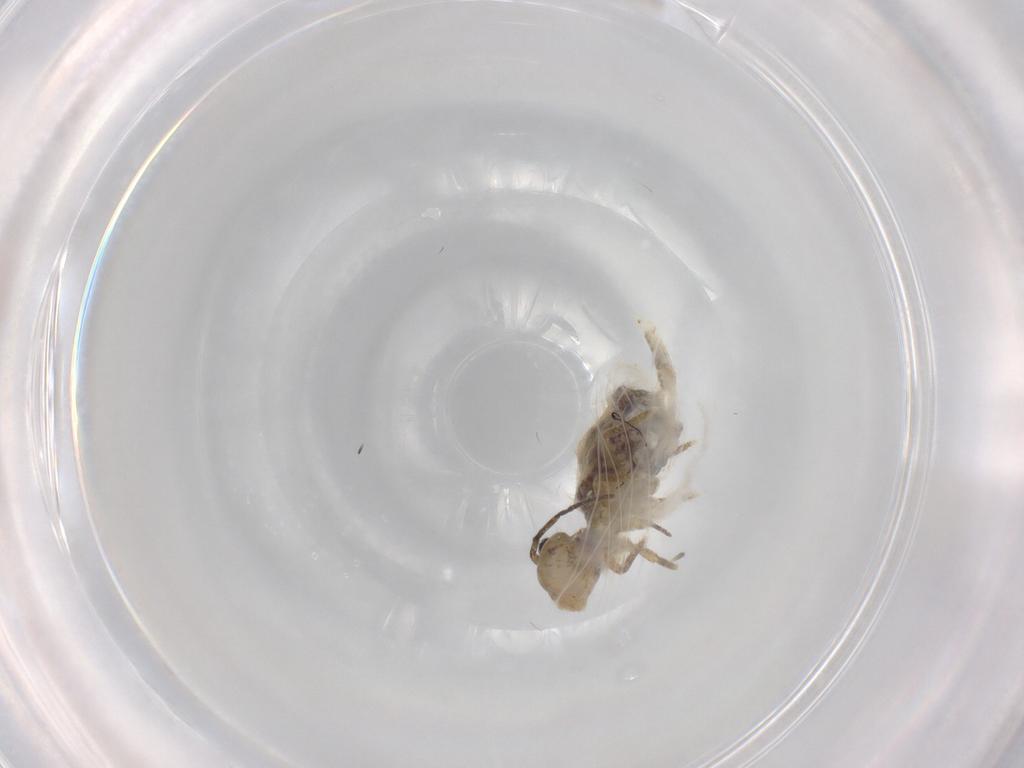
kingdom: Animalia
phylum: Arthropoda
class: Collembola
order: Symphypleona
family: Sminthuridae
